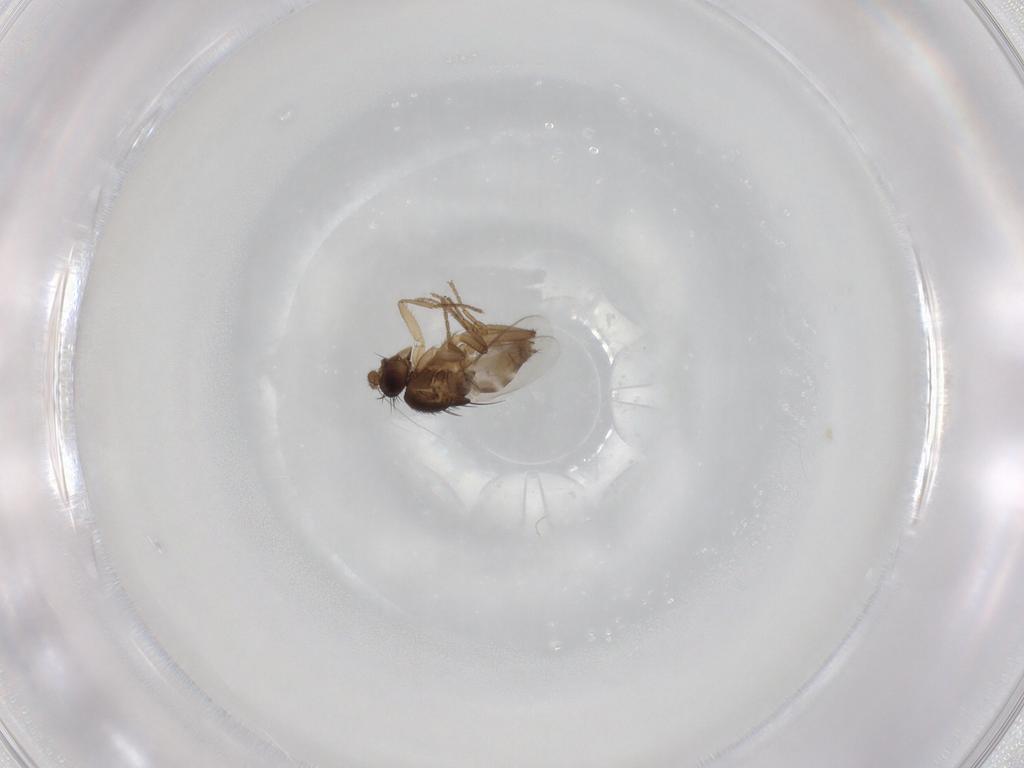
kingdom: Animalia
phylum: Arthropoda
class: Insecta
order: Diptera
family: Sphaeroceridae
